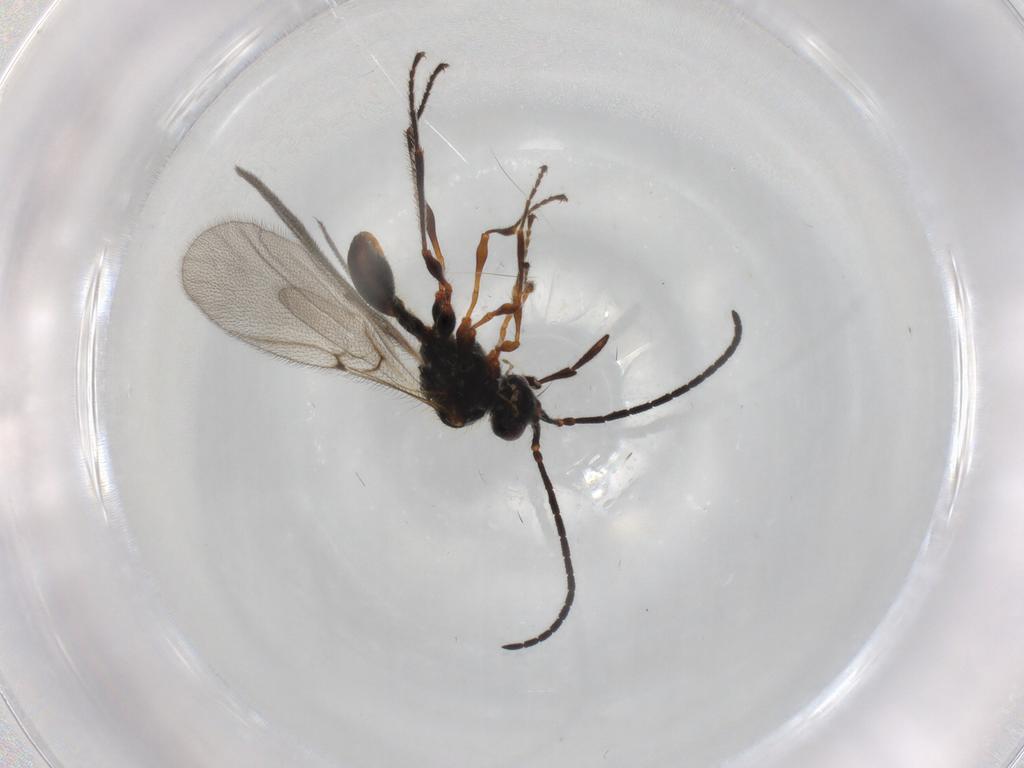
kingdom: Animalia
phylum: Arthropoda
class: Insecta
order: Hymenoptera
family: Diapriidae
